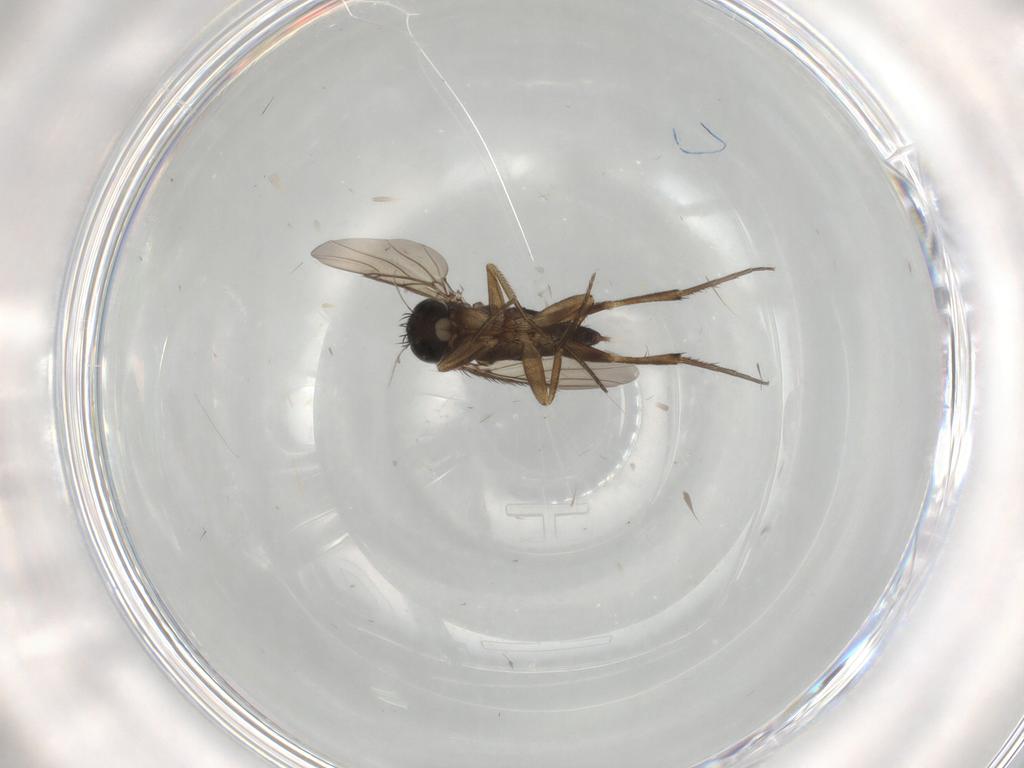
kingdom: Animalia
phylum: Arthropoda
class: Insecta
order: Diptera
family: Phoridae
